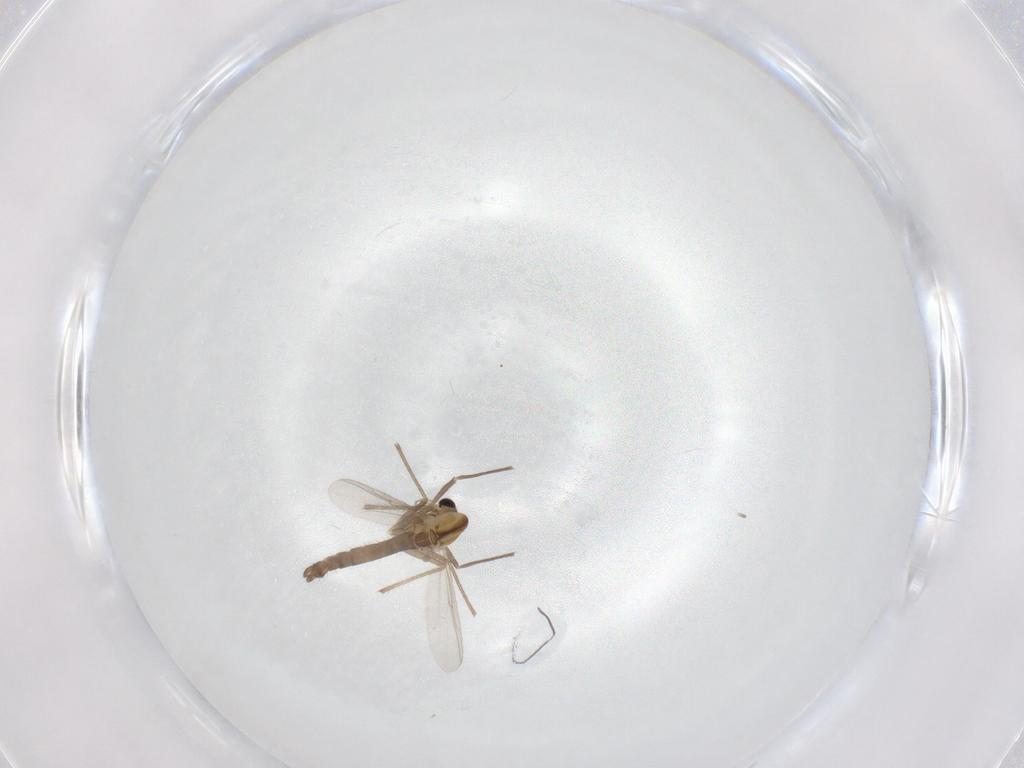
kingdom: Animalia
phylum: Arthropoda
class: Insecta
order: Diptera
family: Chironomidae
